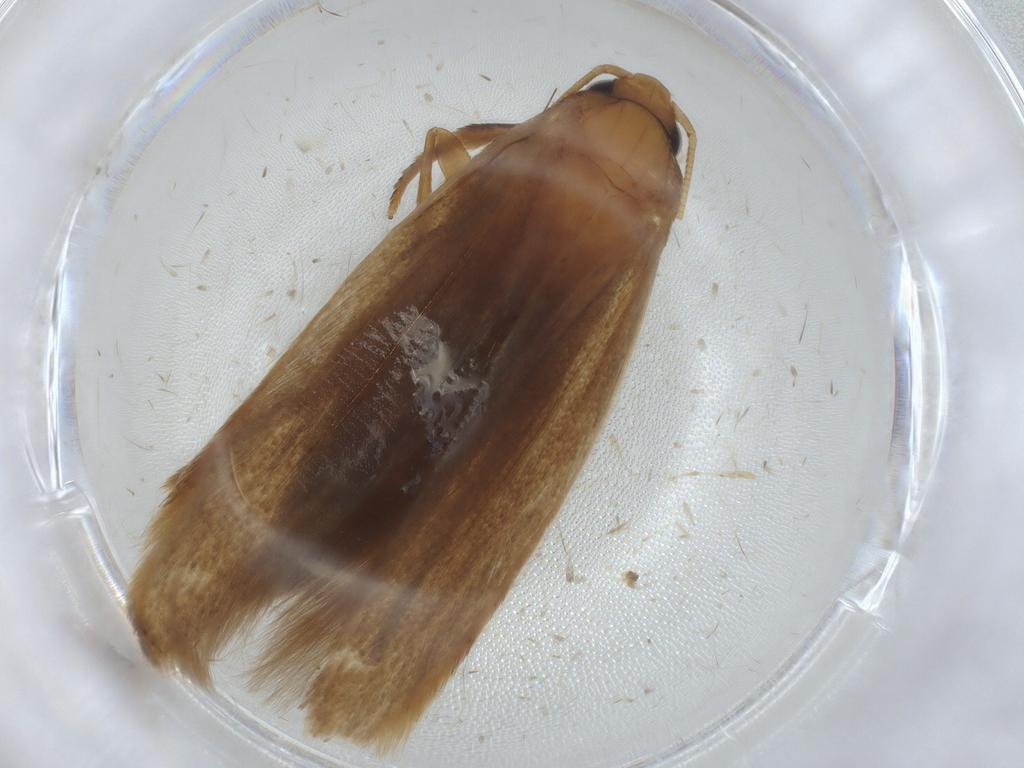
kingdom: Animalia
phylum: Arthropoda
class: Insecta
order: Lepidoptera
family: Tineidae
